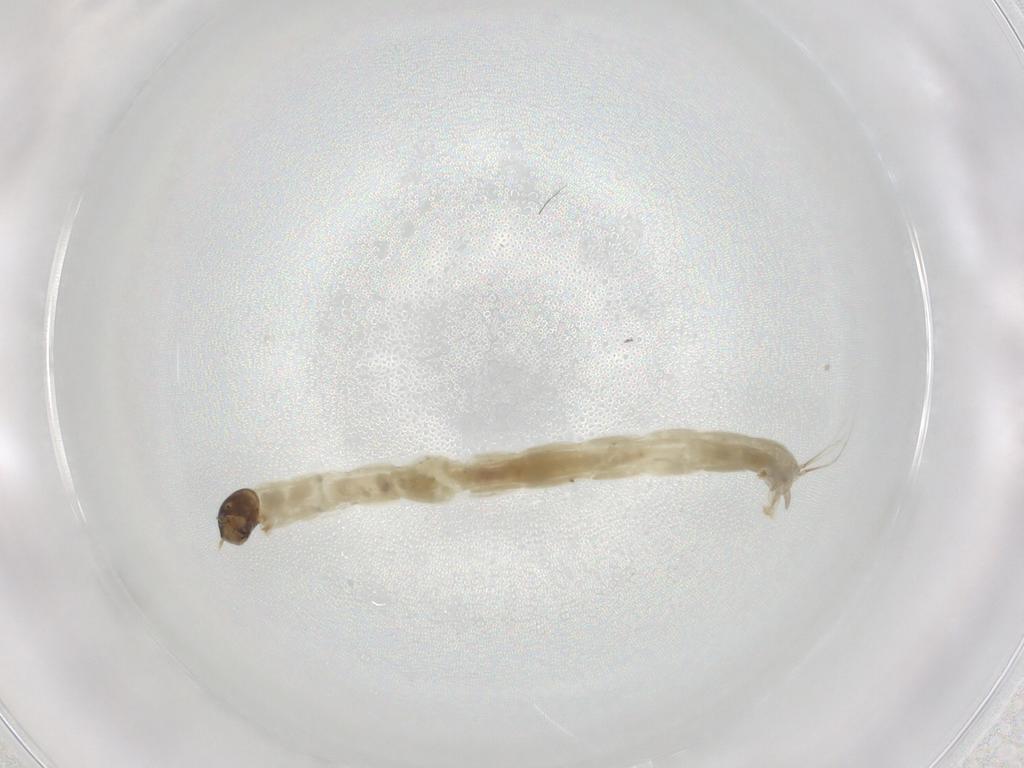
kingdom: Animalia
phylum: Arthropoda
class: Insecta
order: Diptera
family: Chironomidae
